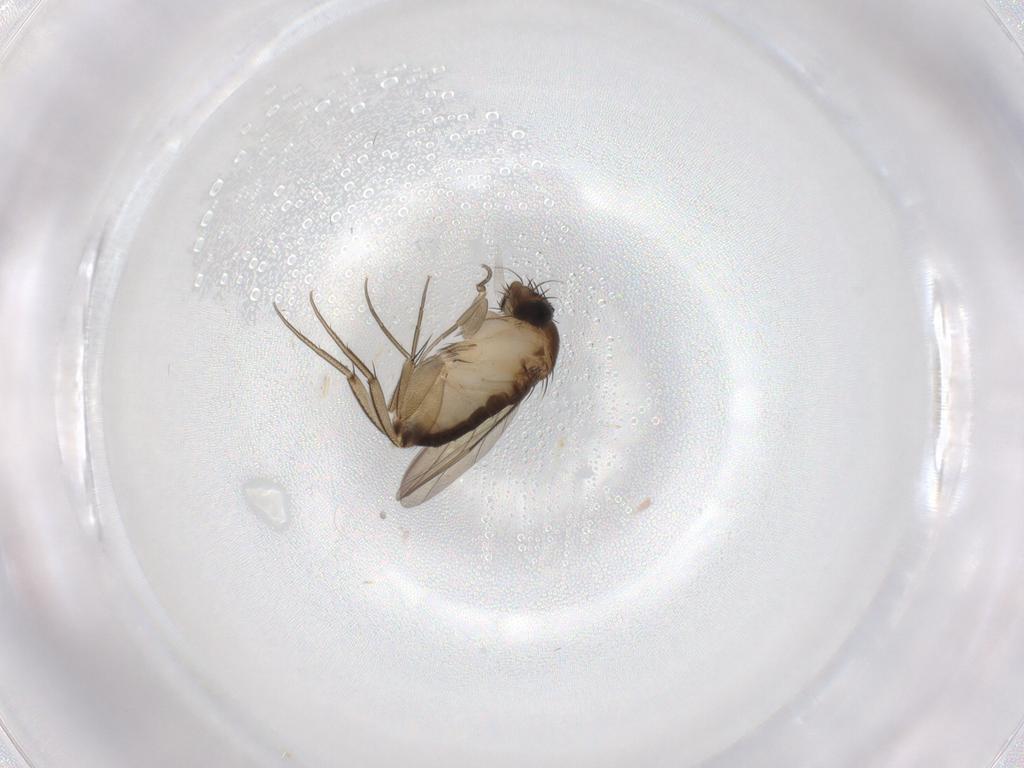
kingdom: Animalia
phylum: Arthropoda
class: Insecta
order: Diptera
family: Phoridae
